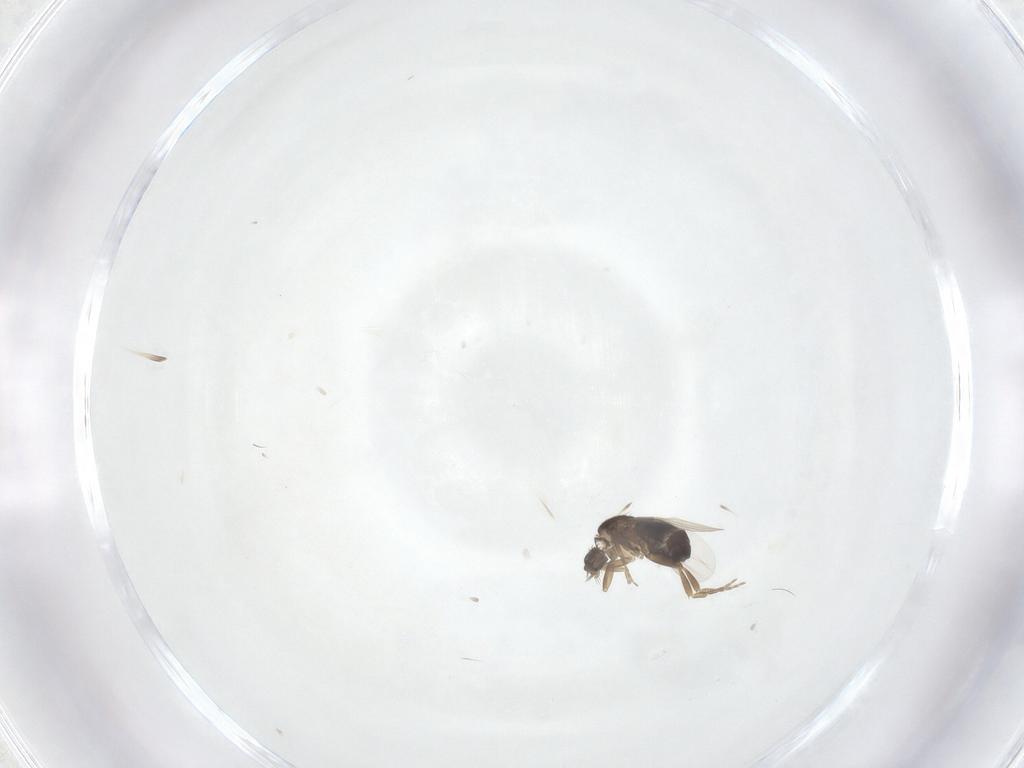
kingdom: Animalia
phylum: Arthropoda
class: Insecta
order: Diptera
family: Phoridae
